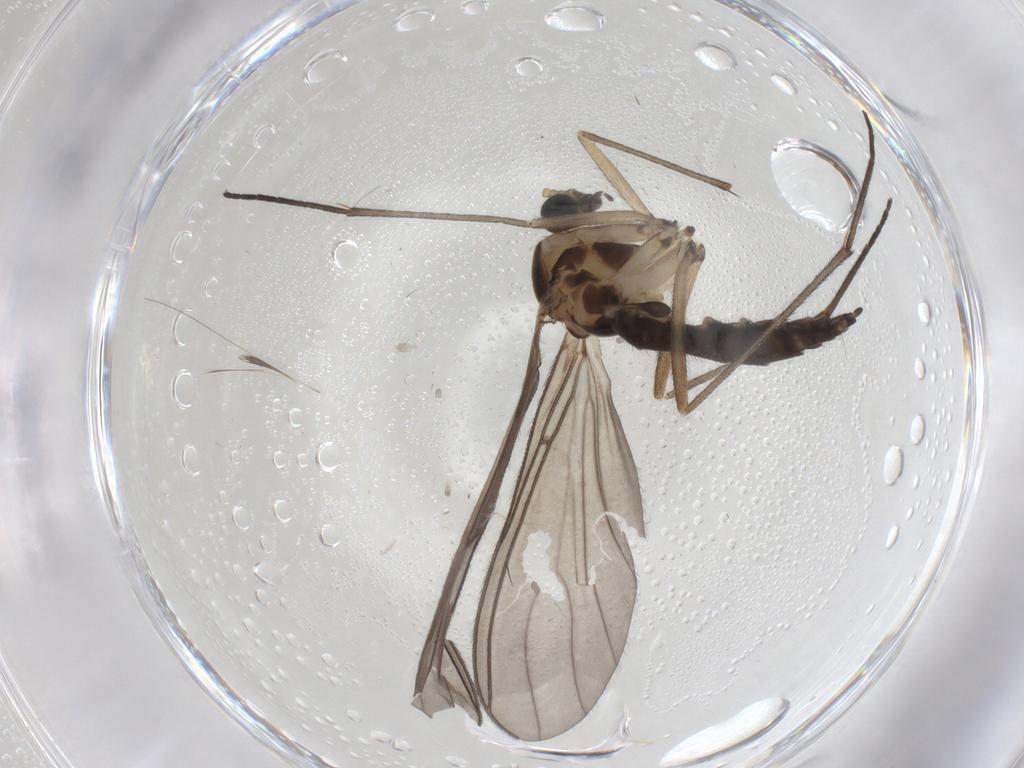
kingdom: Animalia
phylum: Arthropoda
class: Insecta
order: Diptera
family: Sciaridae
